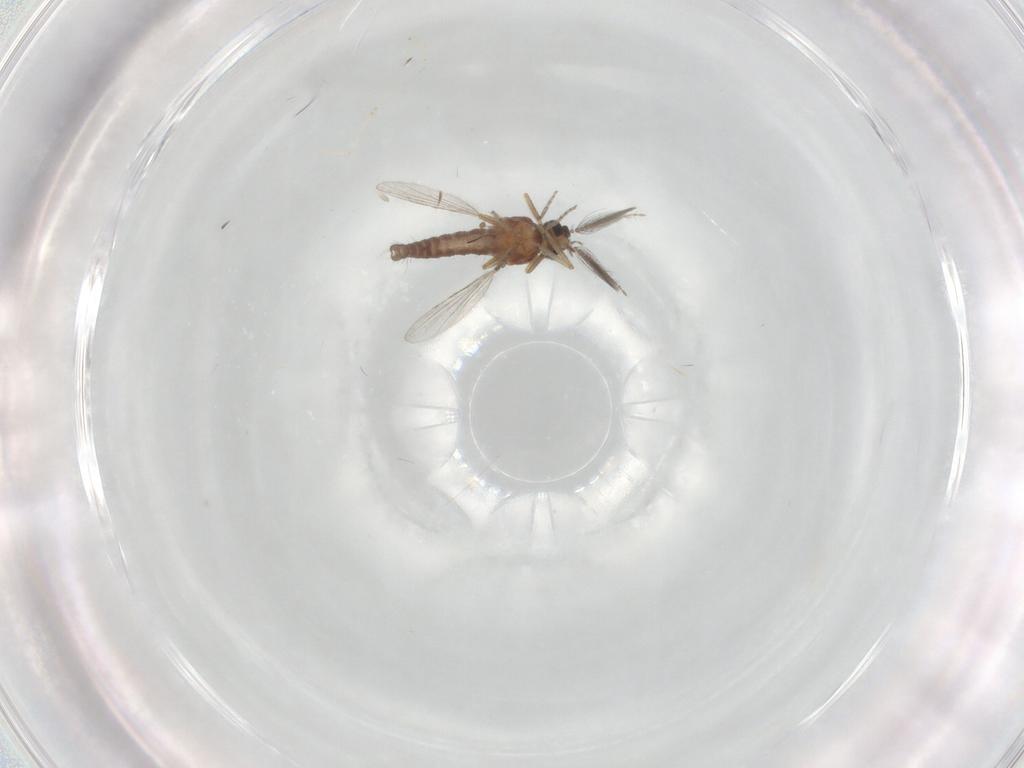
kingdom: Animalia
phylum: Arthropoda
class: Insecta
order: Diptera
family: Ceratopogonidae
